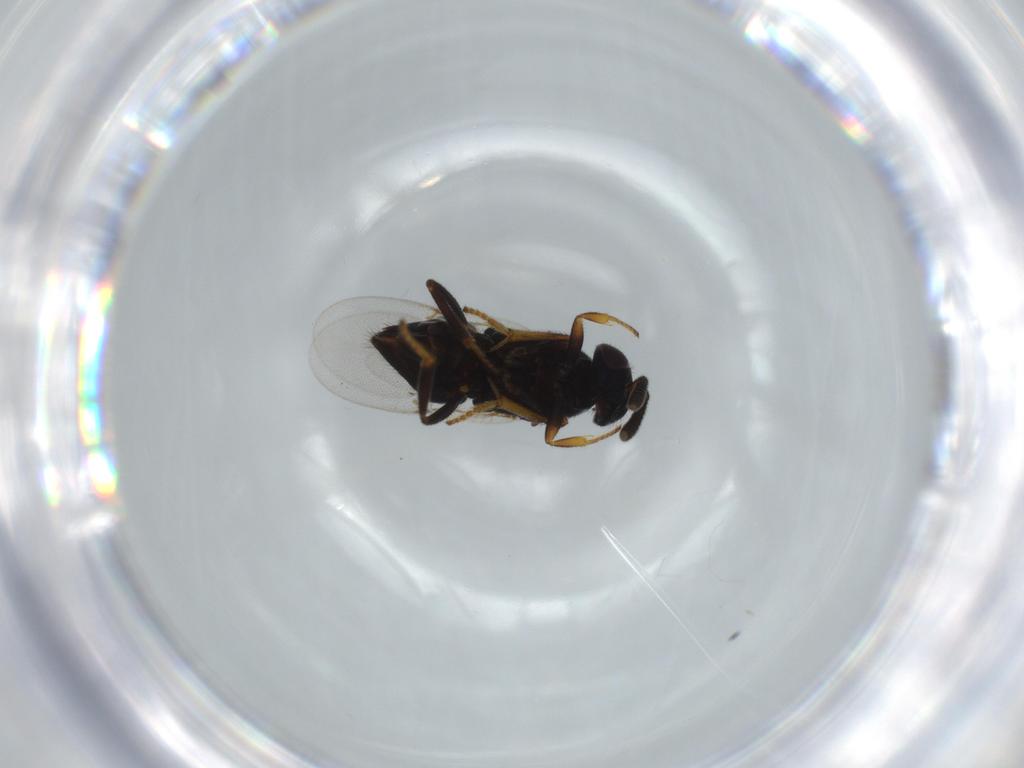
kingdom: Animalia
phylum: Arthropoda
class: Insecta
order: Hymenoptera
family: Encyrtidae
